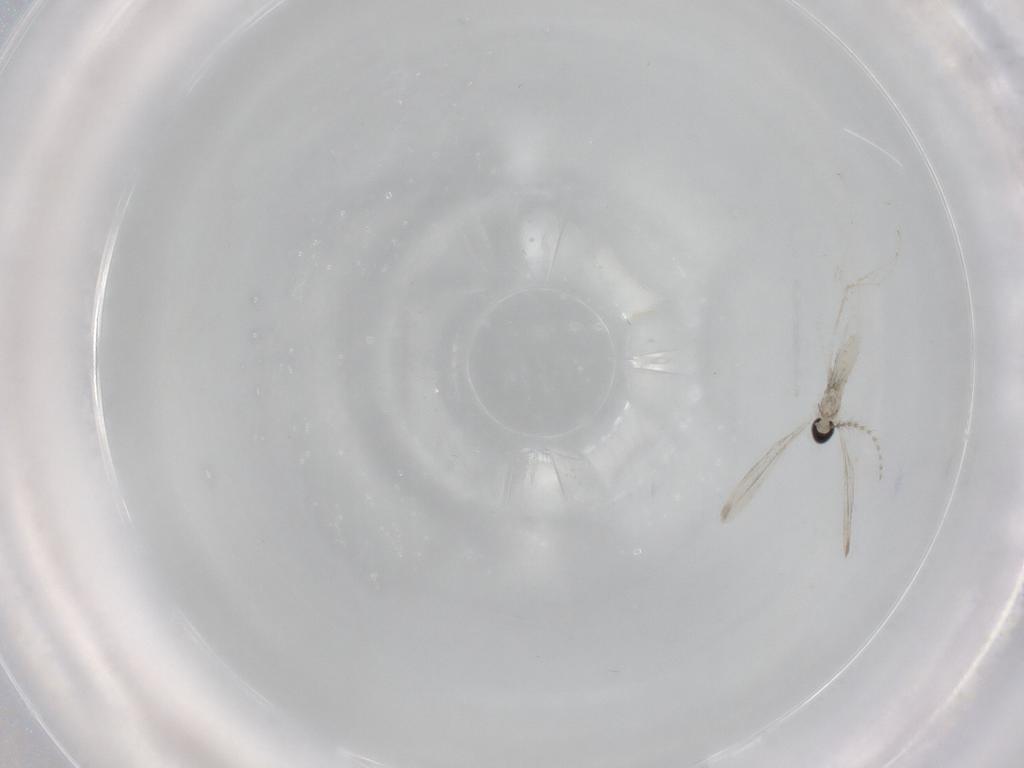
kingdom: Animalia
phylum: Arthropoda
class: Insecta
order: Diptera
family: Cecidomyiidae
